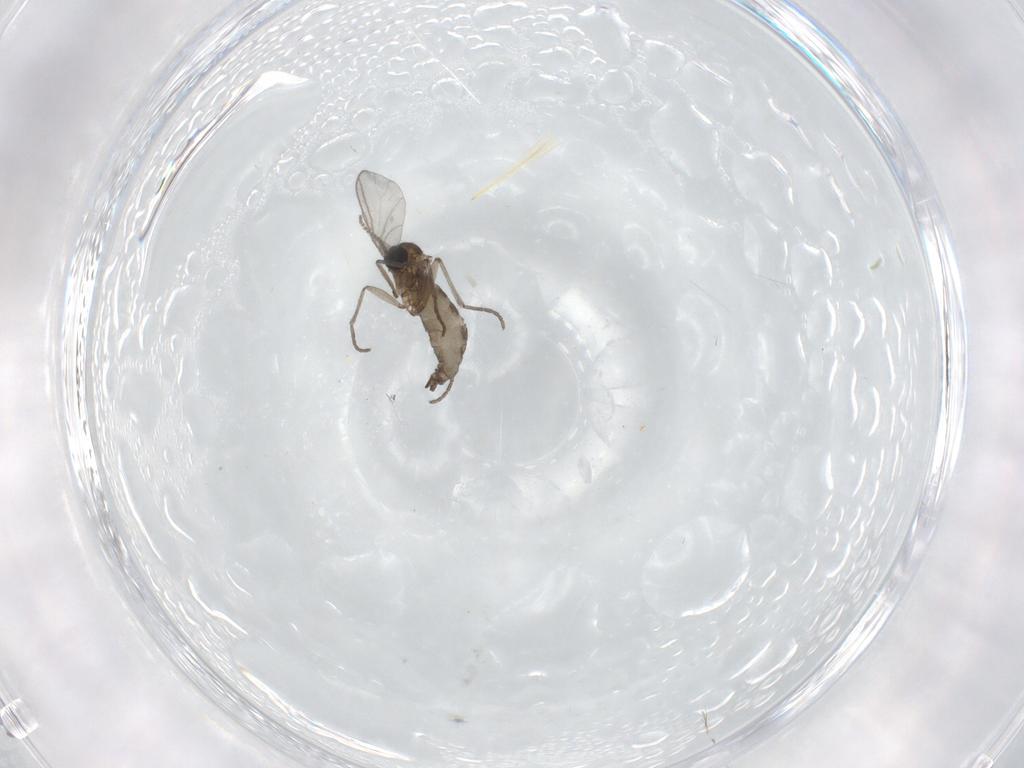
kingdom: Animalia
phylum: Arthropoda
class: Insecta
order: Diptera
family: Sciaridae
